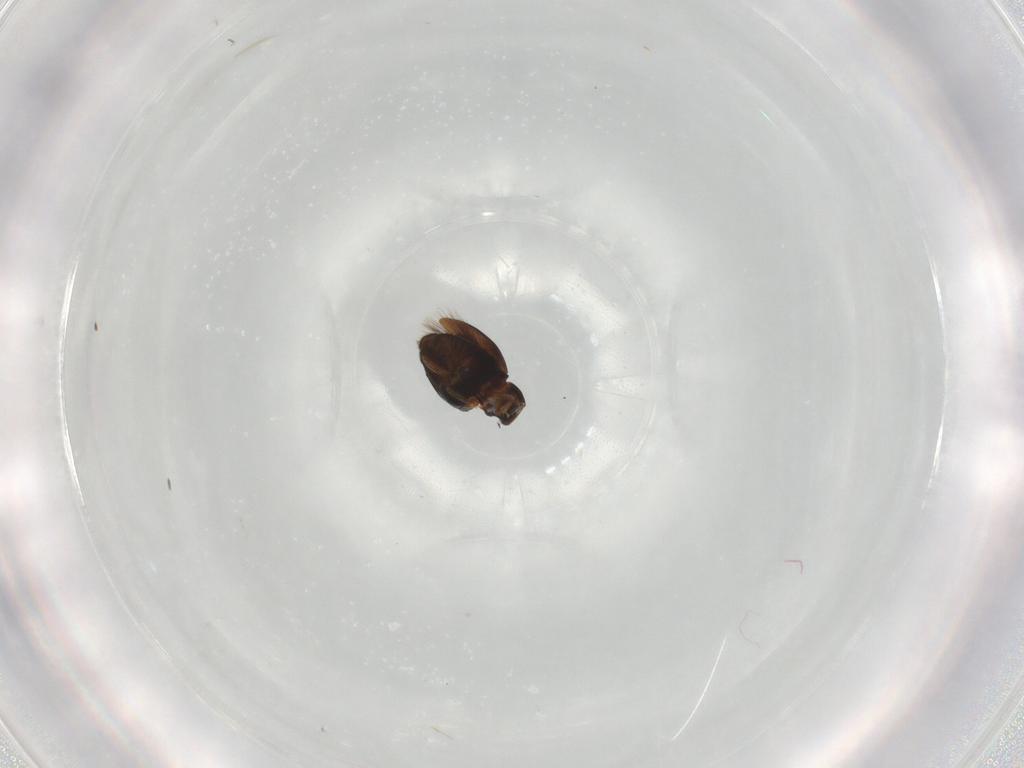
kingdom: Animalia
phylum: Arthropoda
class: Insecta
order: Coleoptera
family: Ptiliidae
